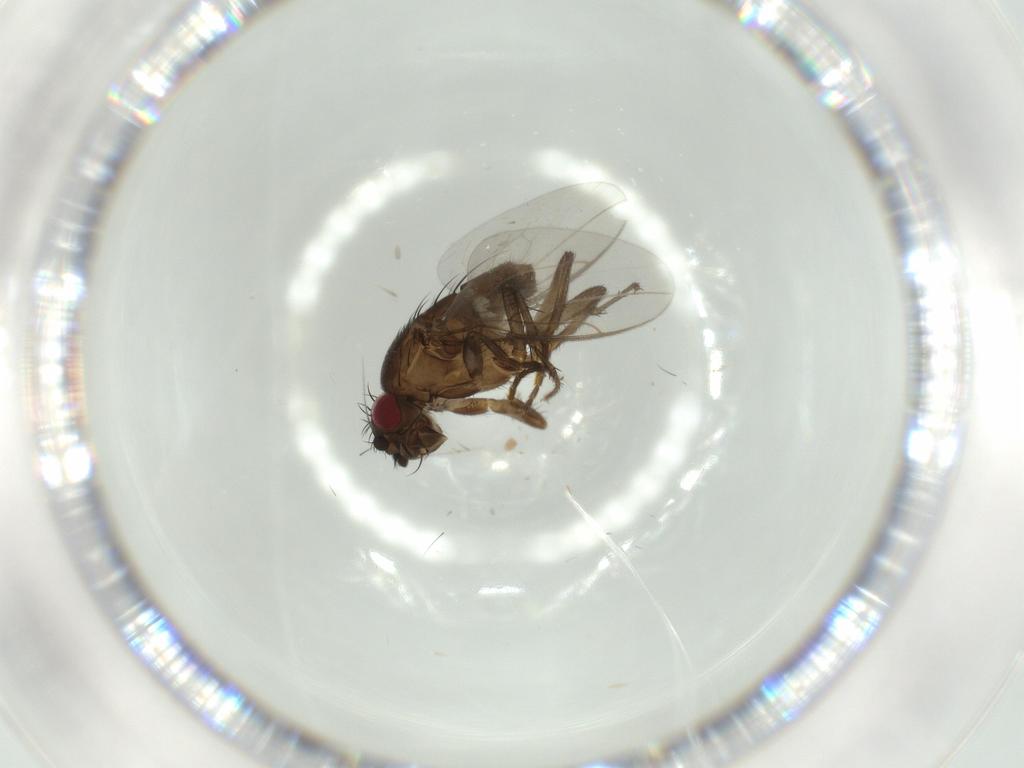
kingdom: Animalia
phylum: Arthropoda
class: Insecta
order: Diptera
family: Sphaeroceridae
